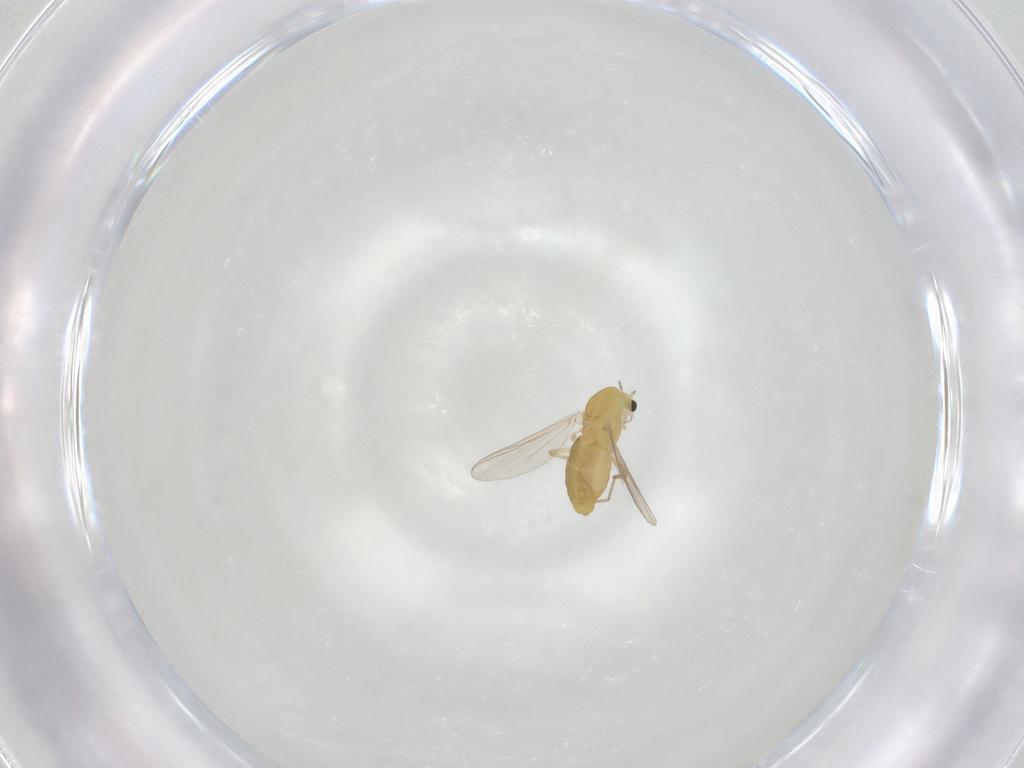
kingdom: Animalia
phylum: Arthropoda
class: Insecta
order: Diptera
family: Chironomidae
